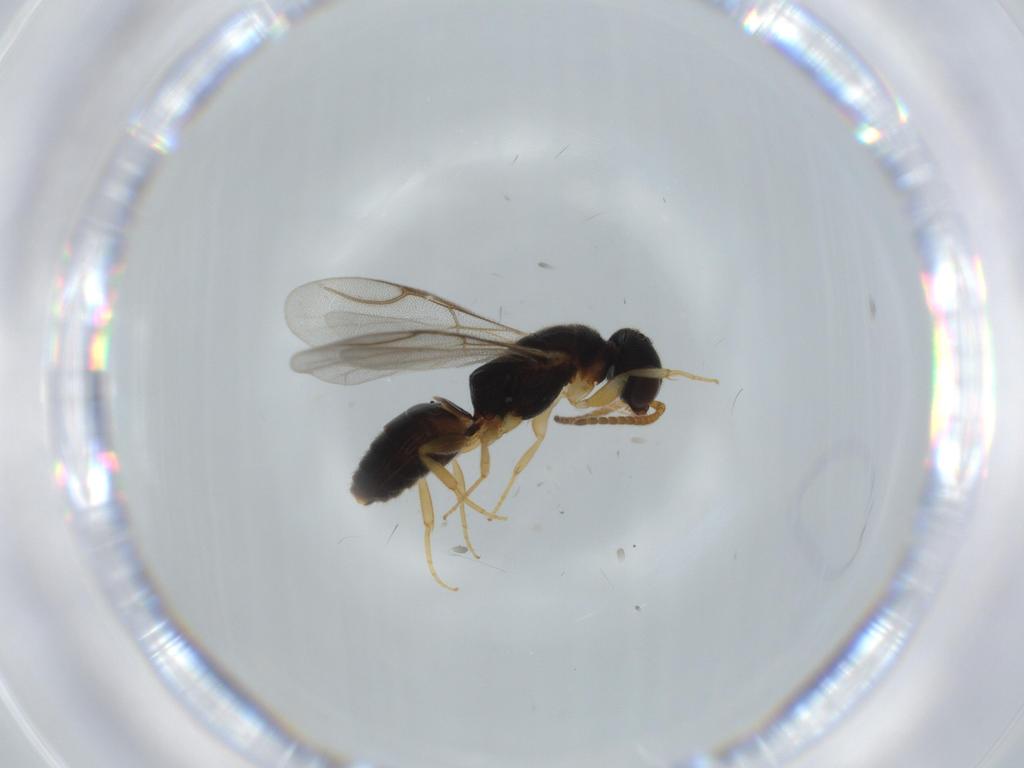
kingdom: Animalia
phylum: Arthropoda
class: Insecta
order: Hymenoptera
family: Bethylidae
